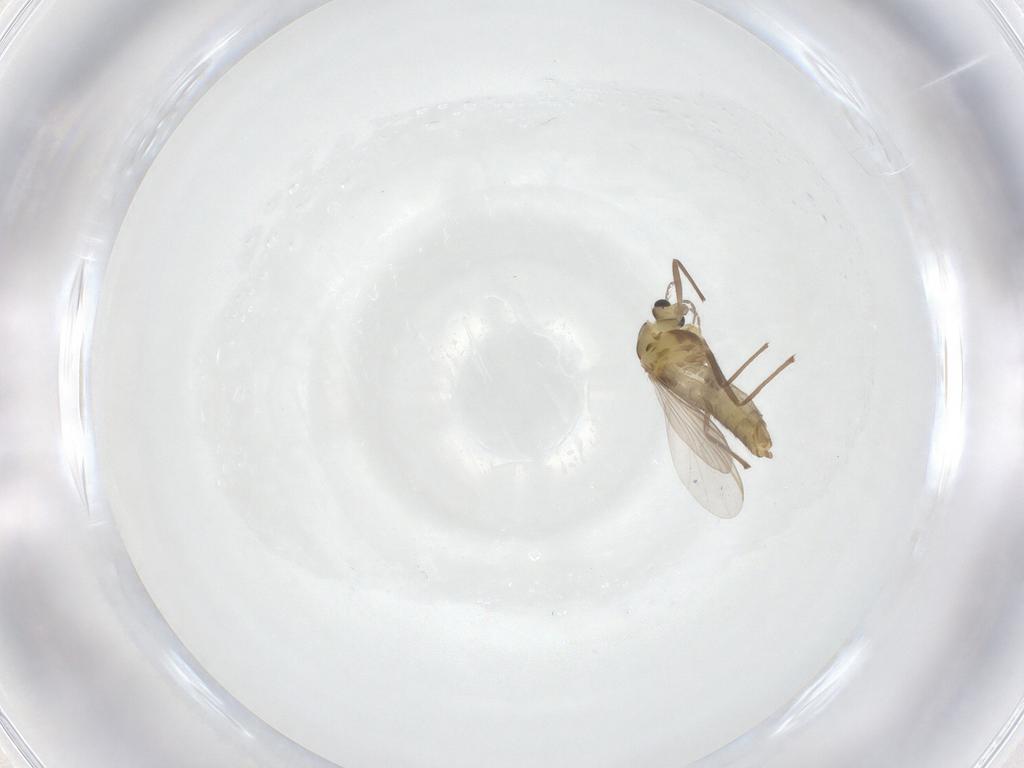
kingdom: Animalia
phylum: Arthropoda
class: Insecta
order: Diptera
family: Chironomidae
